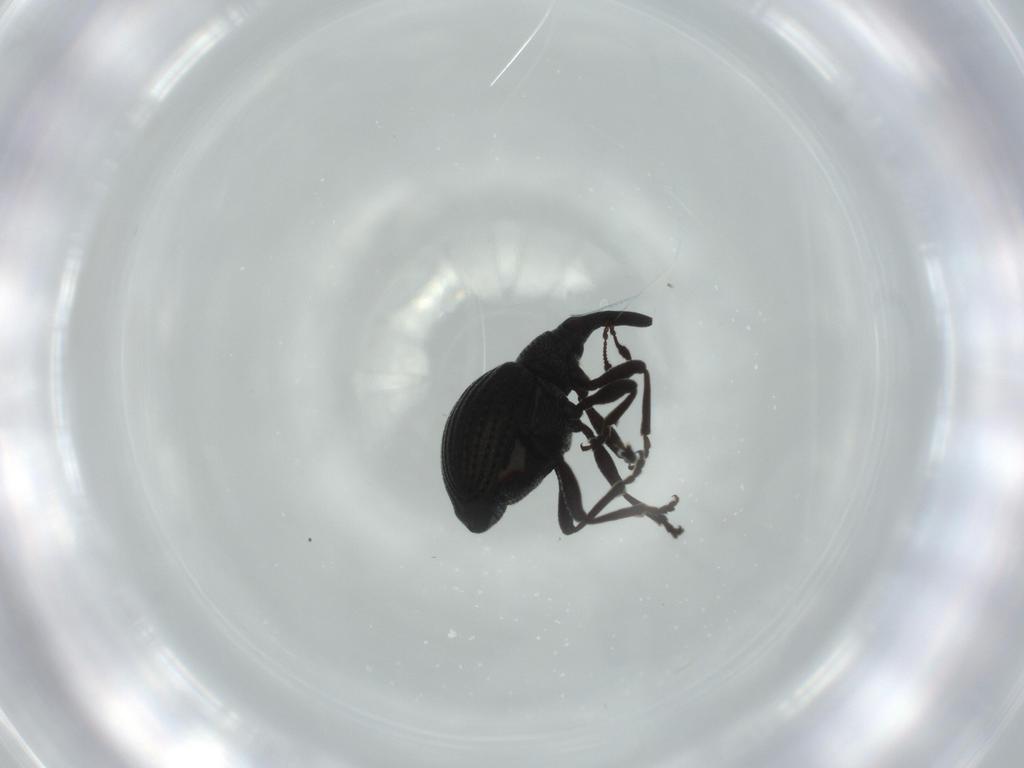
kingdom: Animalia
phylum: Arthropoda
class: Insecta
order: Coleoptera
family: Brentidae
